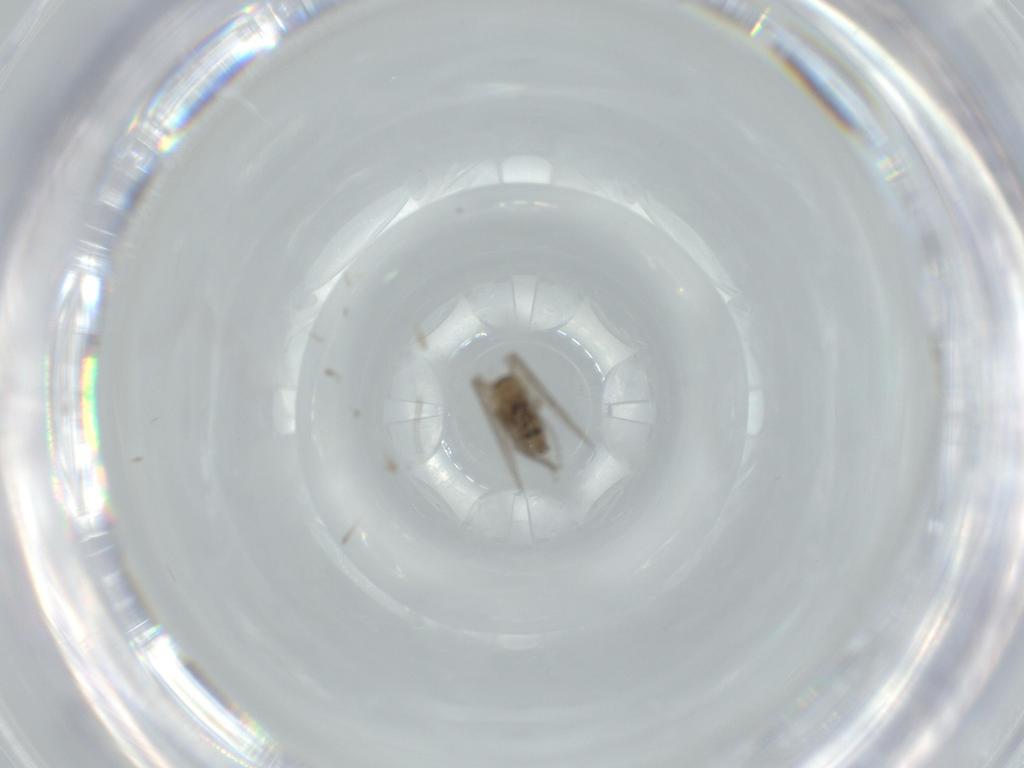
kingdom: Animalia
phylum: Arthropoda
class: Insecta
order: Diptera
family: Psychodidae
